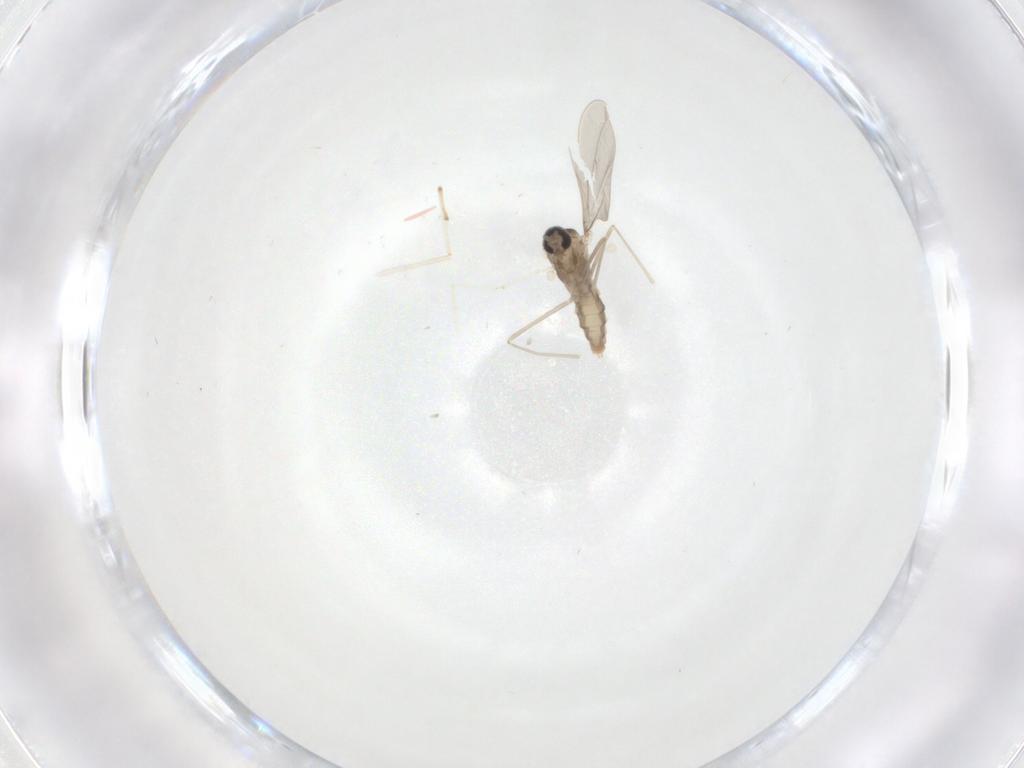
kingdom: Animalia
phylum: Arthropoda
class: Insecta
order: Diptera
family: Cecidomyiidae
